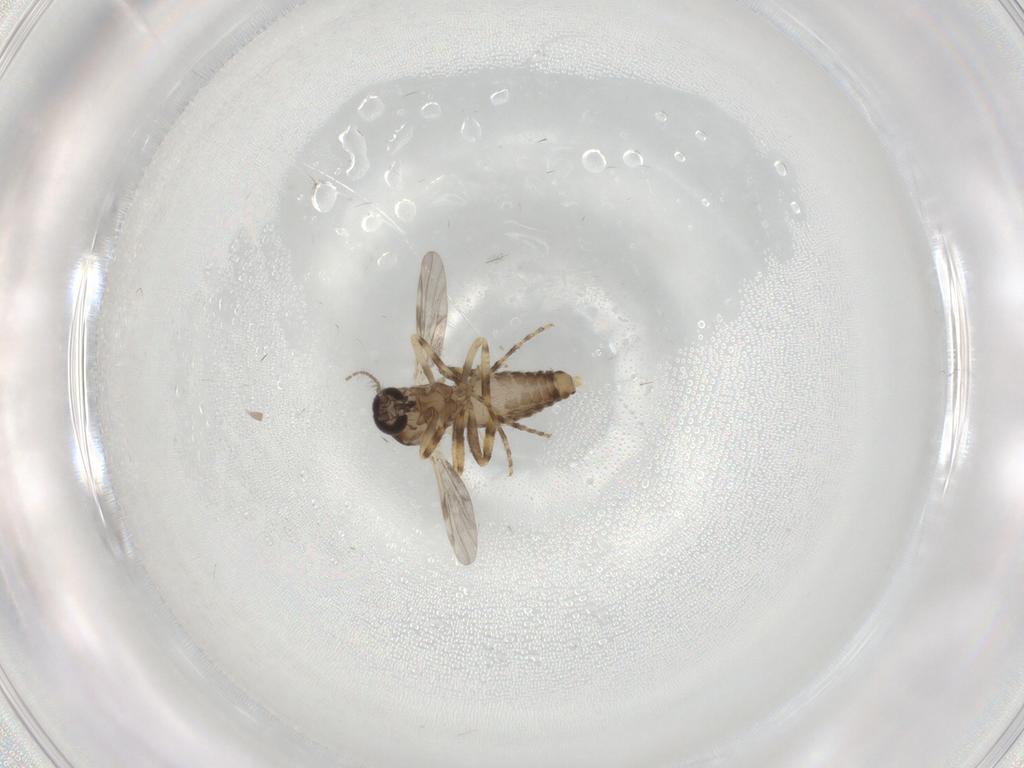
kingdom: Animalia
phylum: Arthropoda
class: Insecta
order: Diptera
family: Ceratopogonidae
